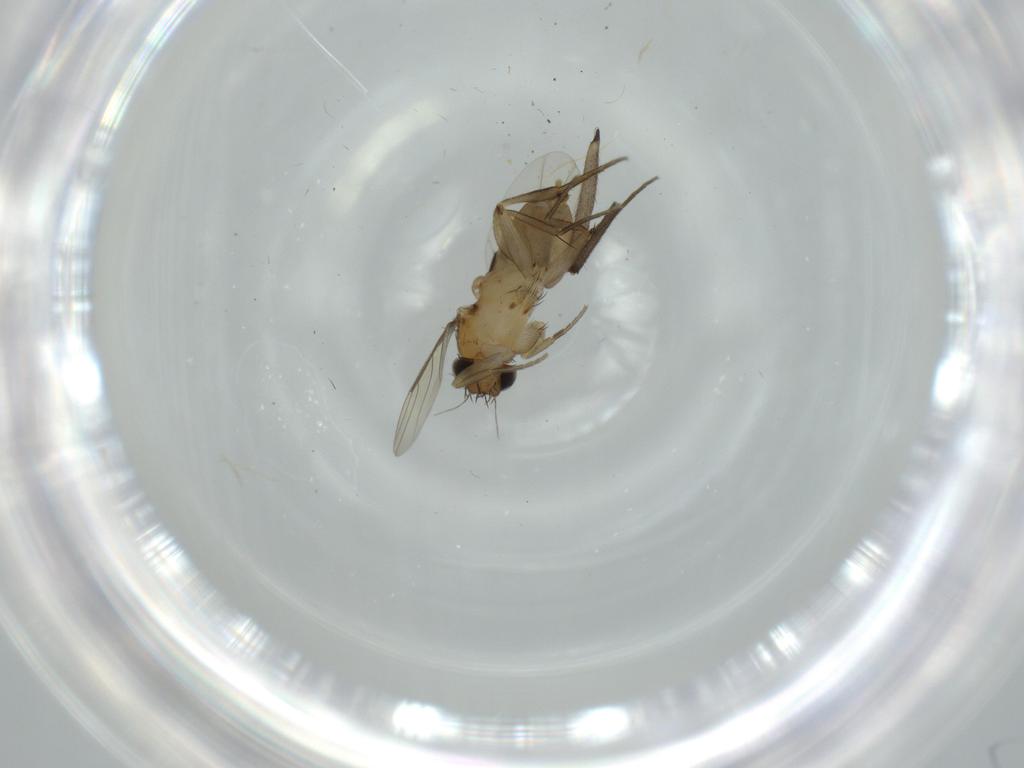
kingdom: Animalia
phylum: Arthropoda
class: Insecta
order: Diptera
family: Phoridae
